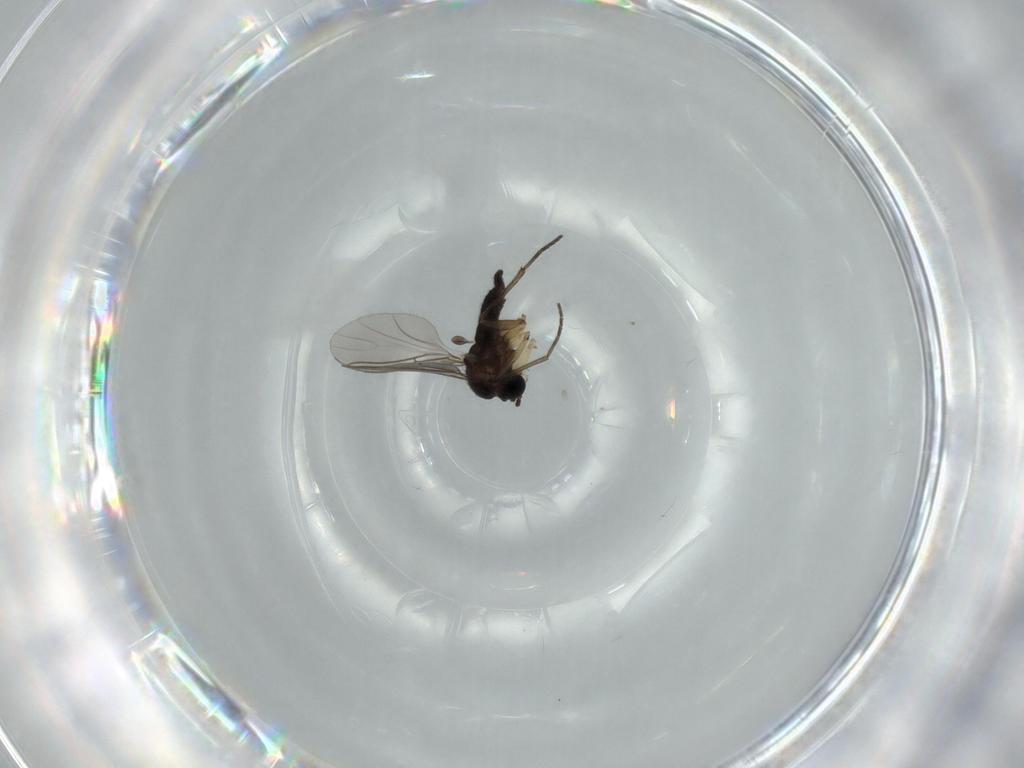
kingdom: Animalia
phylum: Arthropoda
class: Insecta
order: Diptera
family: Sciaridae
